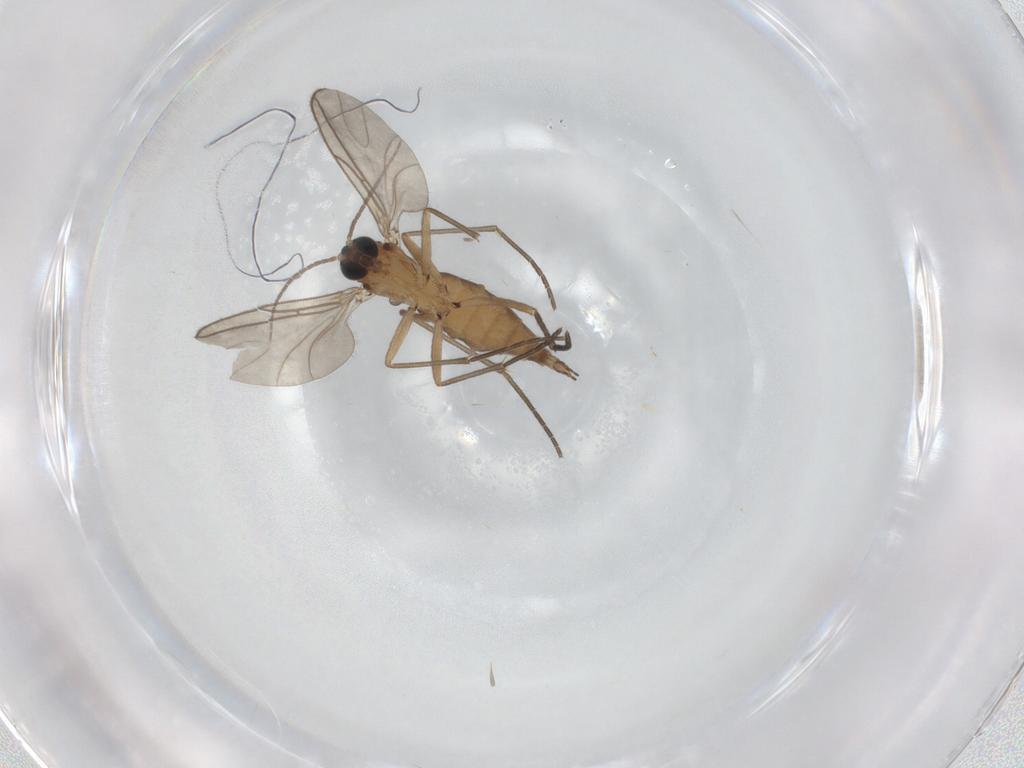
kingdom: Animalia
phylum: Arthropoda
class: Insecta
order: Diptera
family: Sciaridae
